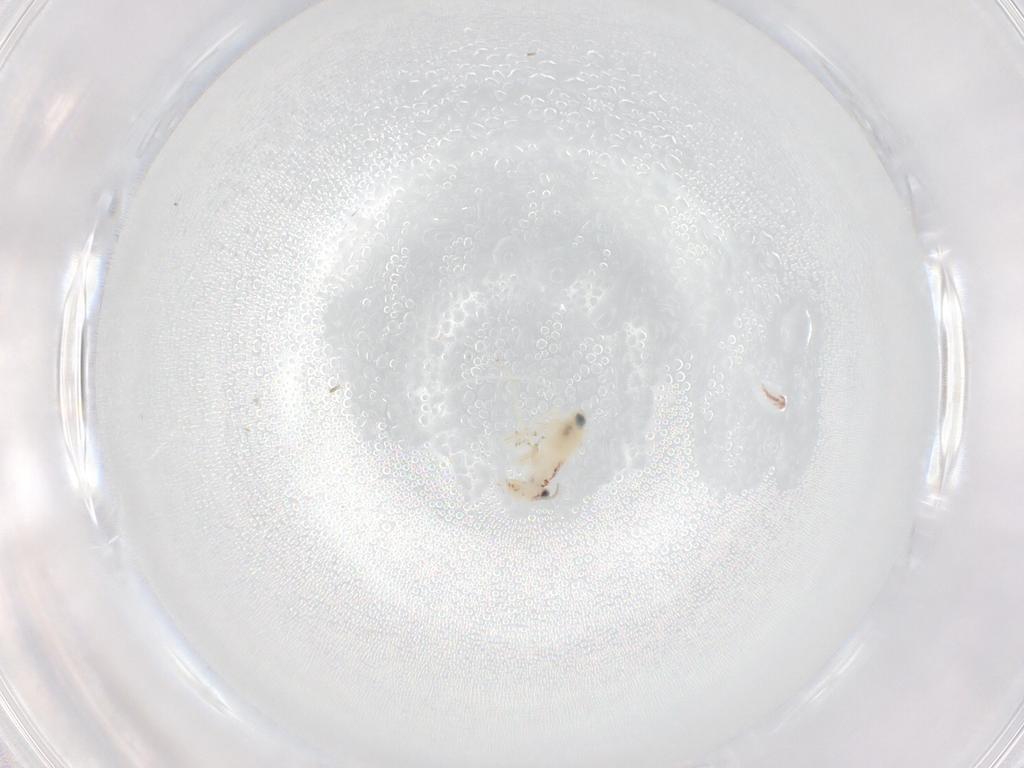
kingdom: Animalia
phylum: Arthropoda
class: Insecta
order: Psocodea
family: Lepidopsocidae
